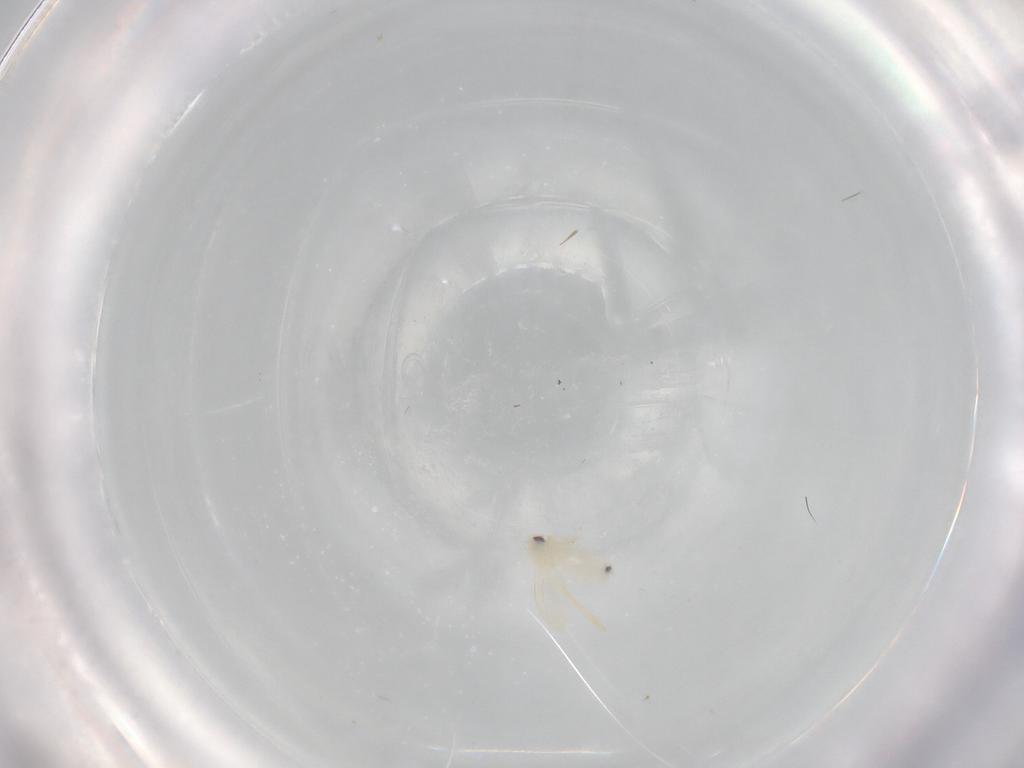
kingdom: Animalia
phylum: Arthropoda
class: Insecta
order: Hemiptera
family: Aleyrodidae
